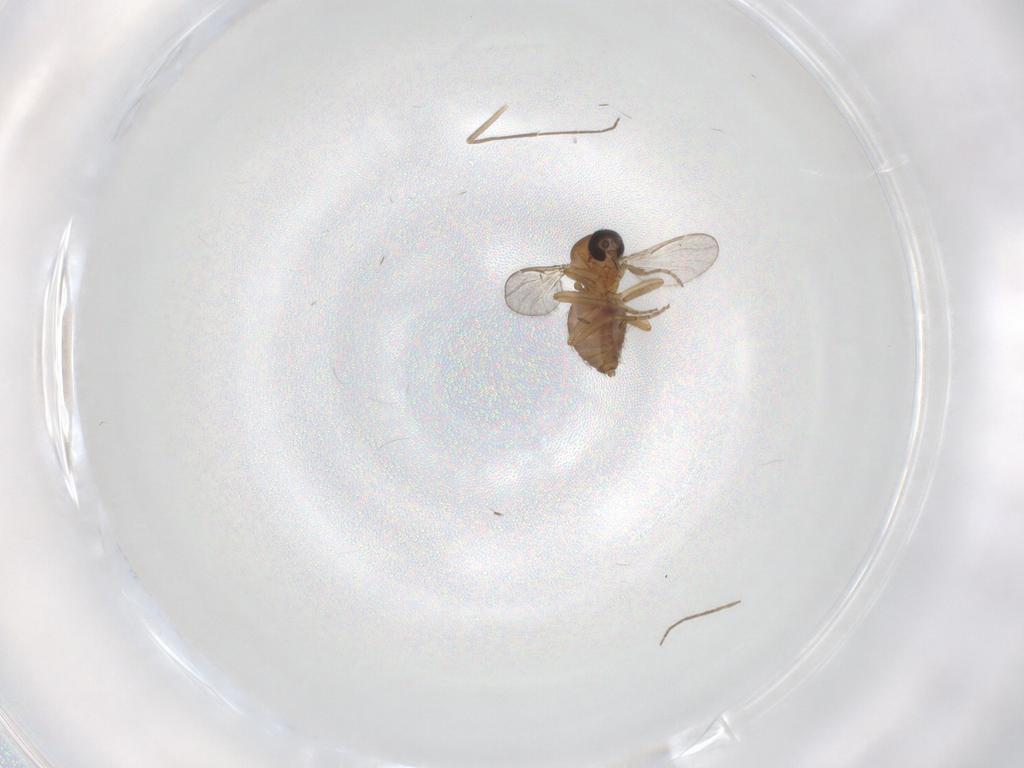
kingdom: Animalia
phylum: Arthropoda
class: Insecta
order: Diptera
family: Ceratopogonidae
